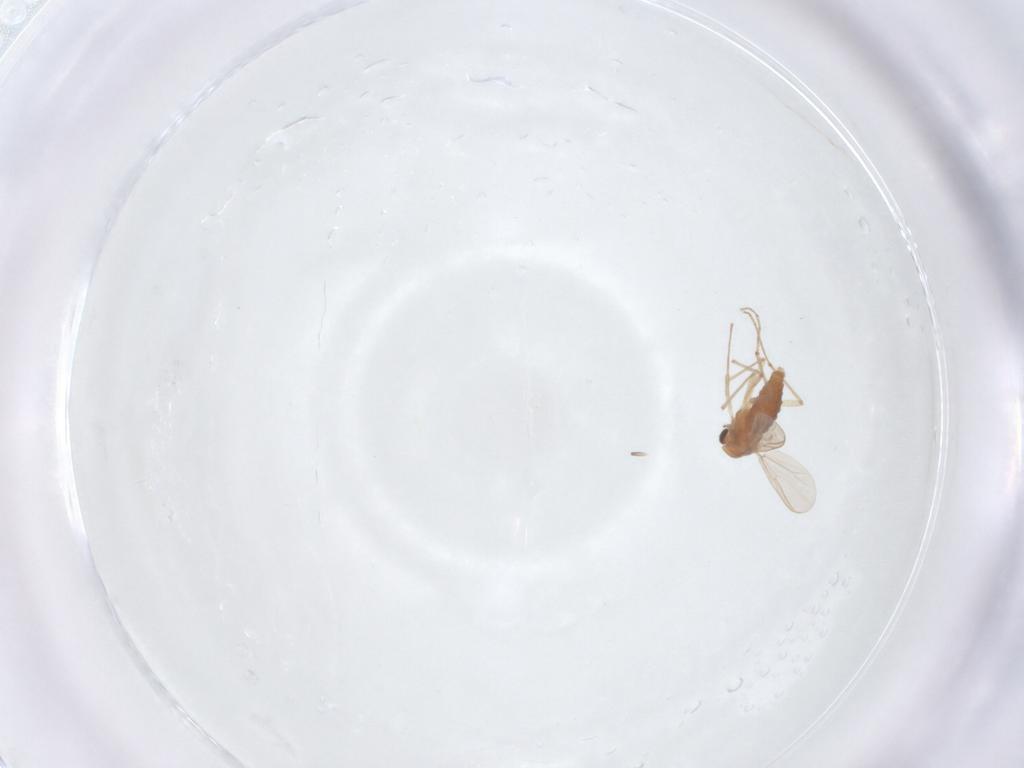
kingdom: Animalia
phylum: Arthropoda
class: Insecta
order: Diptera
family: Chironomidae
